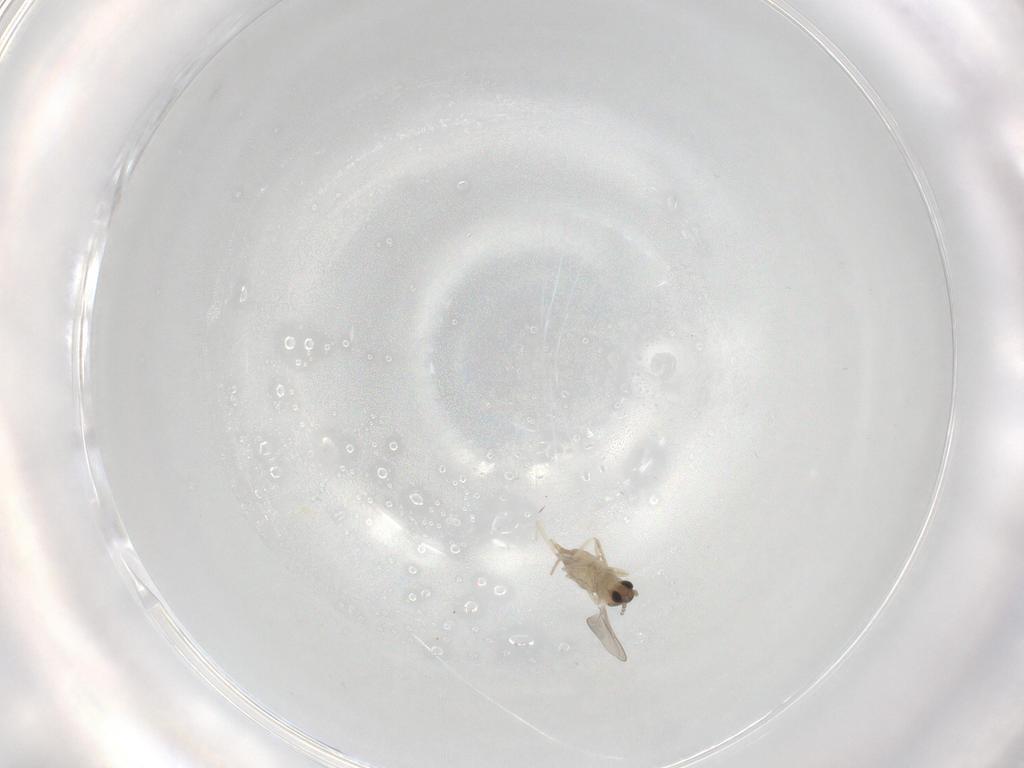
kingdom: Animalia
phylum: Arthropoda
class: Insecta
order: Diptera
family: Cecidomyiidae
